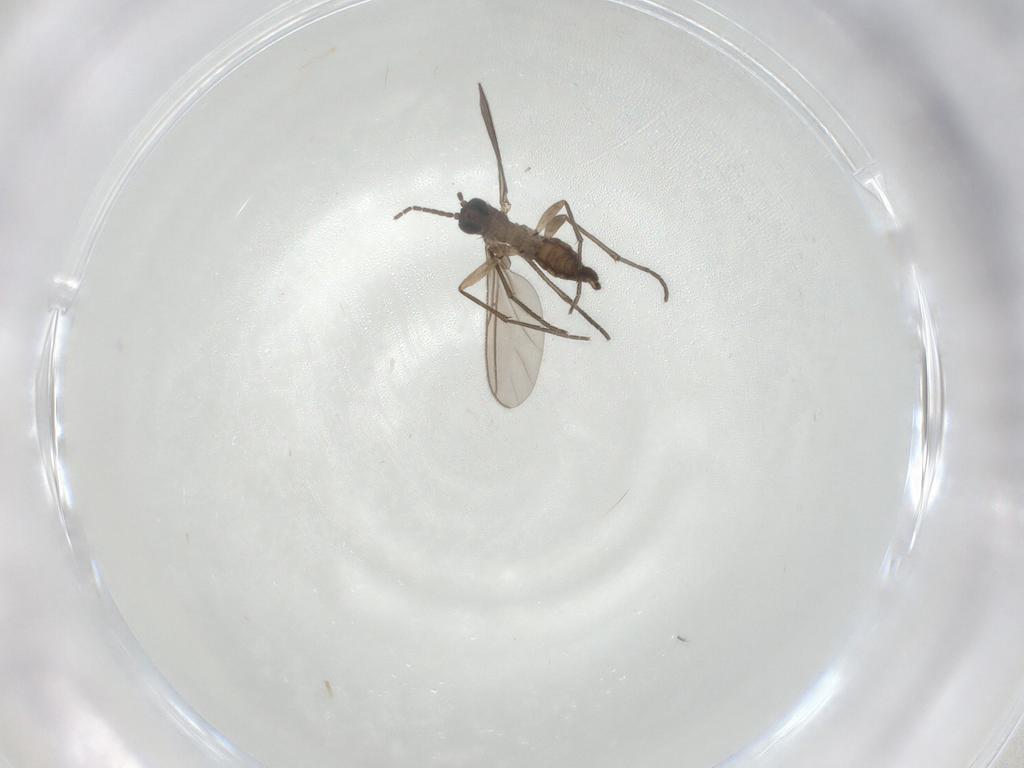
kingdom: Animalia
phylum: Arthropoda
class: Insecta
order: Diptera
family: Sciaridae
